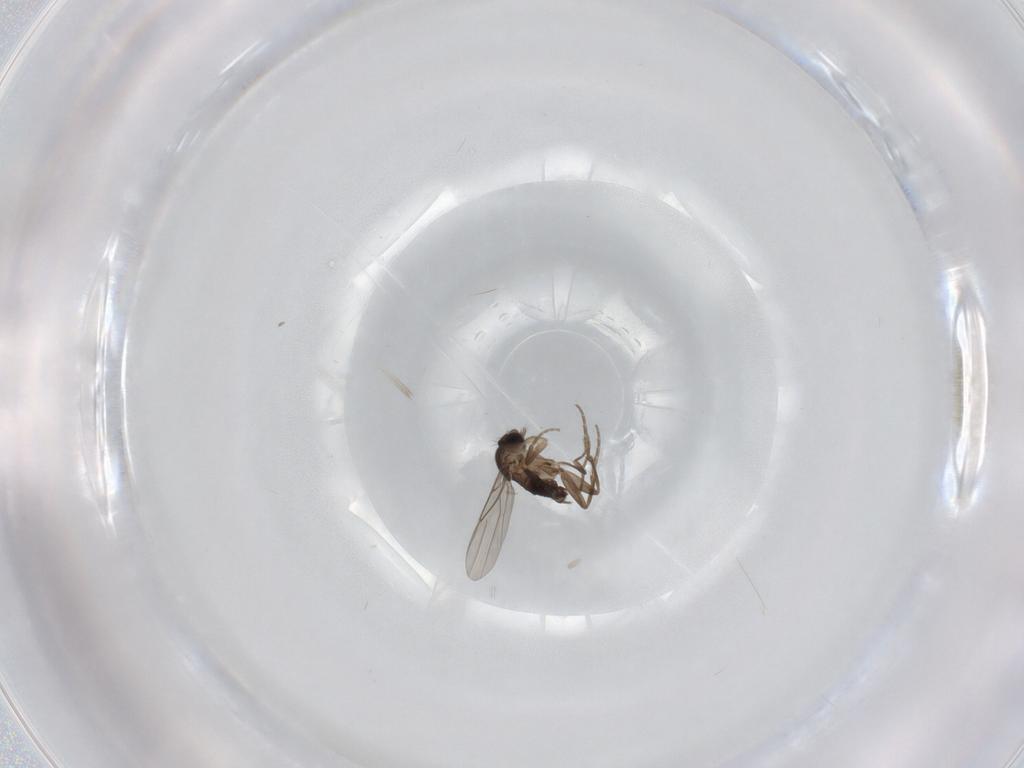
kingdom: Animalia
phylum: Arthropoda
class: Insecta
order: Diptera
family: Phoridae
